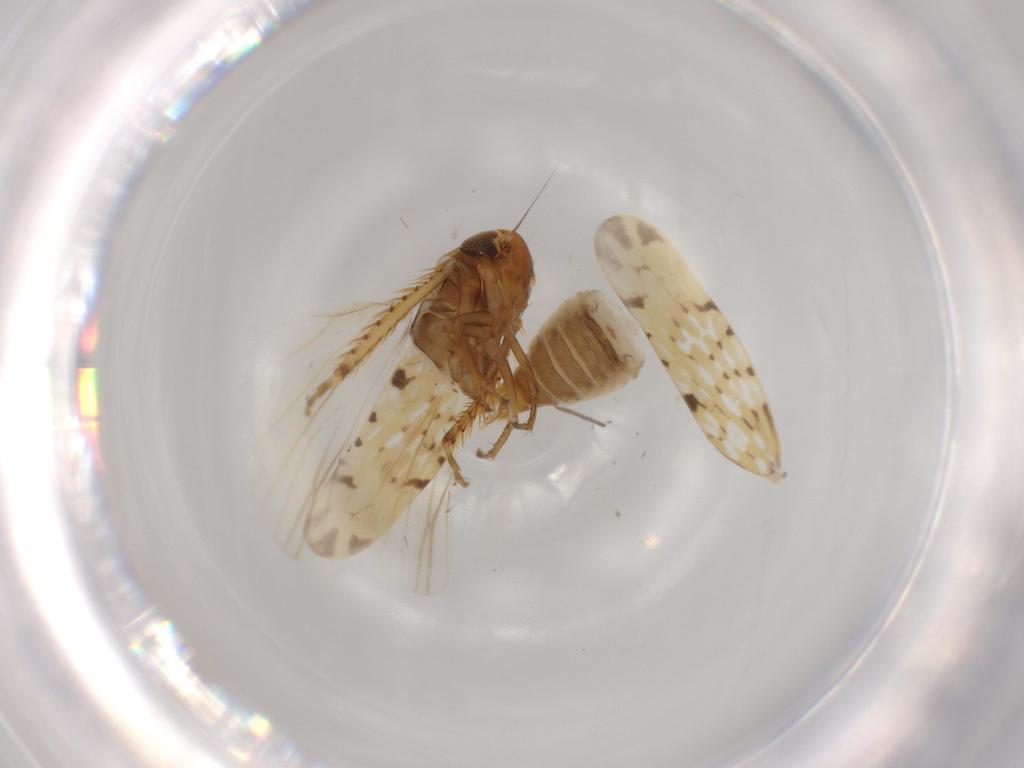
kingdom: Animalia
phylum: Arthropoda
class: Insecta
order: Hemiptera
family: Cicadellidae
